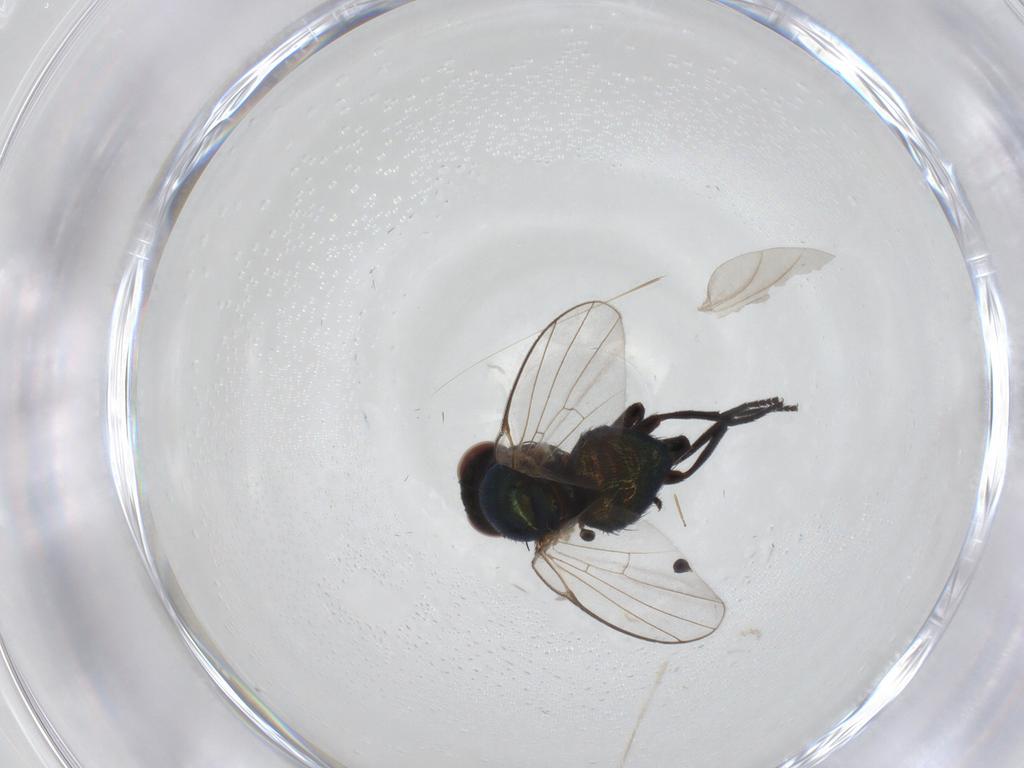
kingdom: Animalia
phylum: Arthropoda
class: Insecta
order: Diptera
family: Agromyzidae
